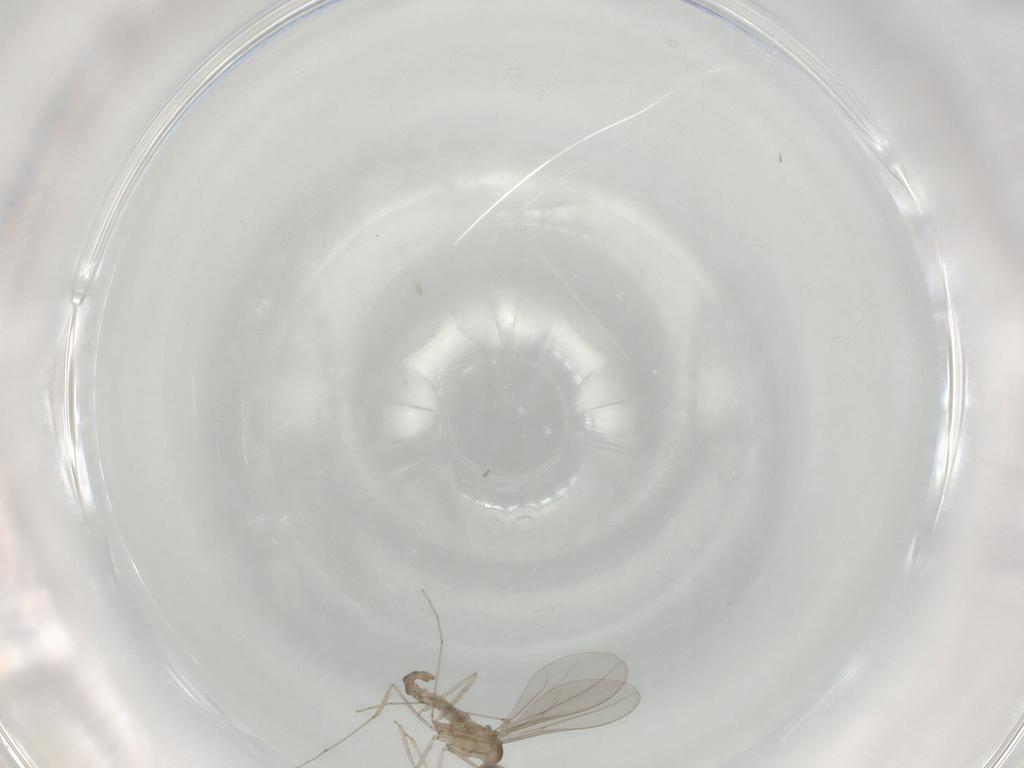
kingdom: Animalia
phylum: Arthropoda
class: Insecta
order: Diptera
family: Limoniidae
